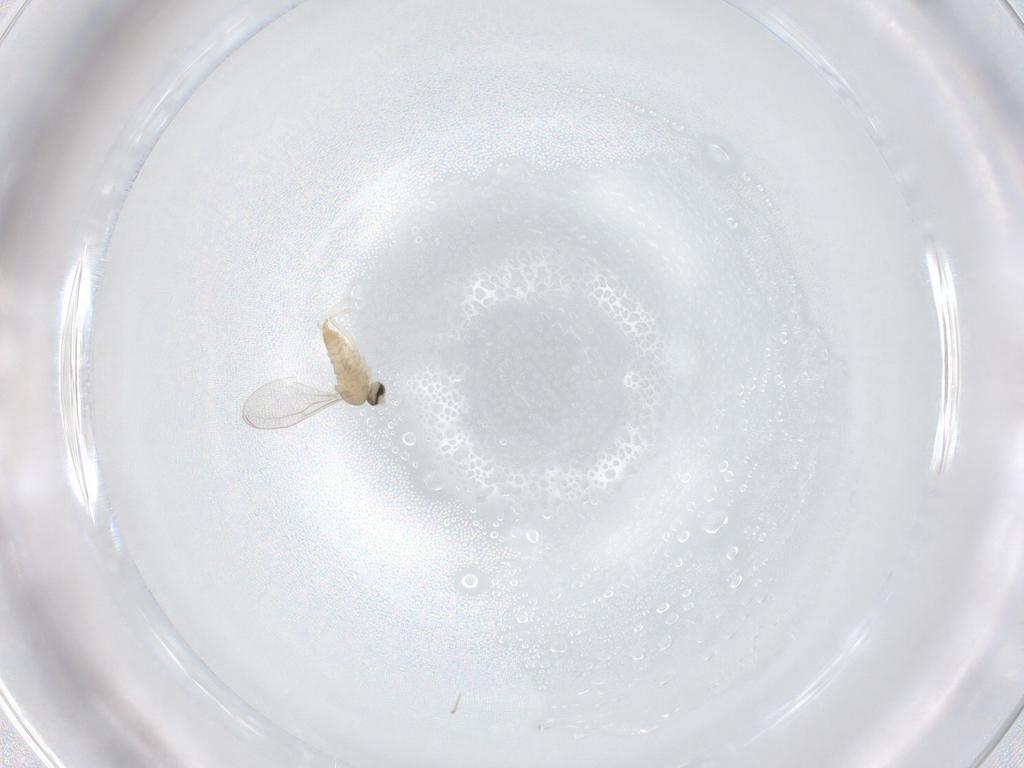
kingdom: Animalia
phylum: Arthropoda
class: Insecta
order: Diptera
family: Cecidomyiidae
